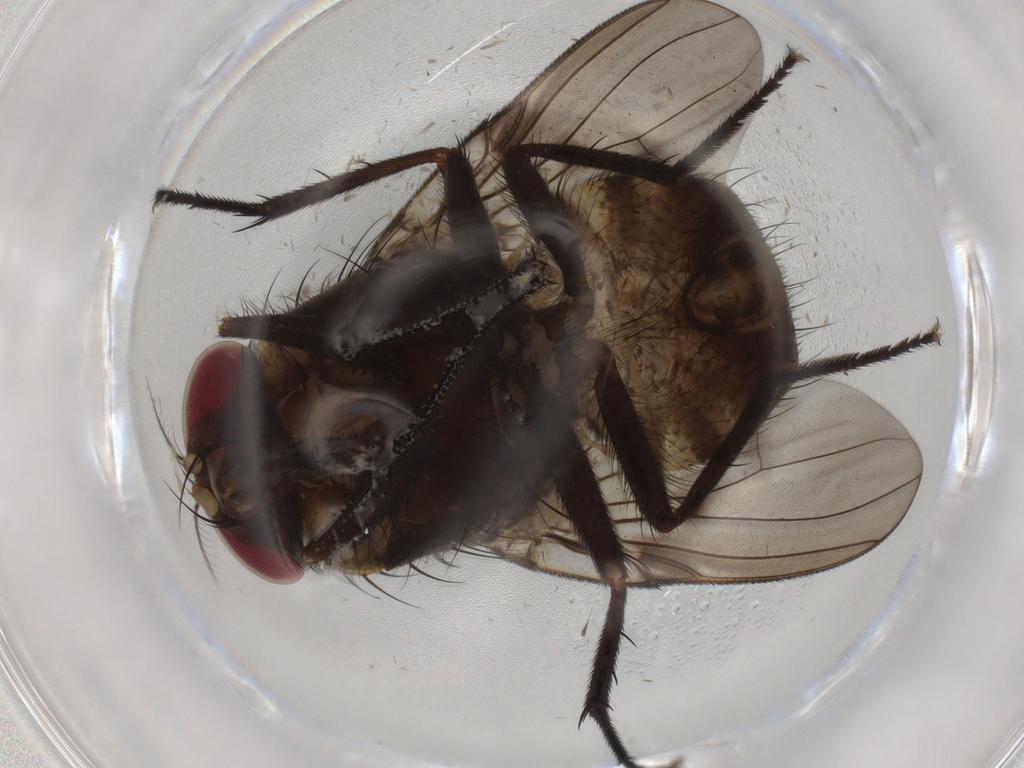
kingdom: Animalia
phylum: Arthropoda
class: Insecta
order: Diptera
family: Muscidae
